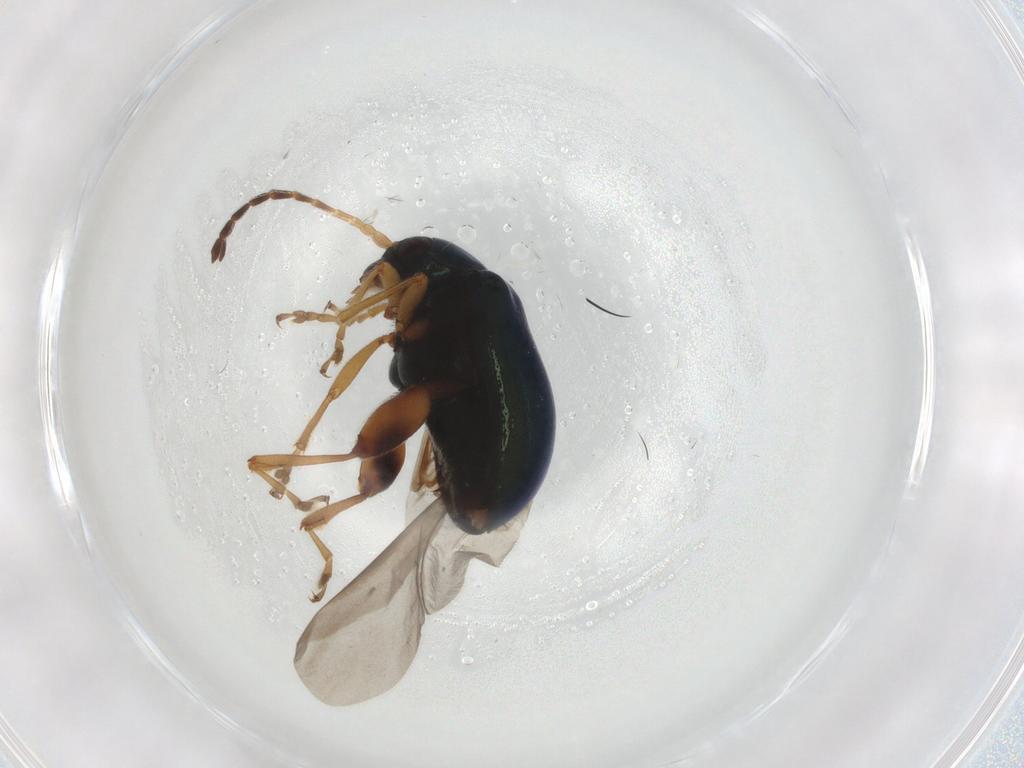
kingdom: Animalia
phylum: Arthropoda
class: Insecta
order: Coleoptera
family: Chrysomelidae
